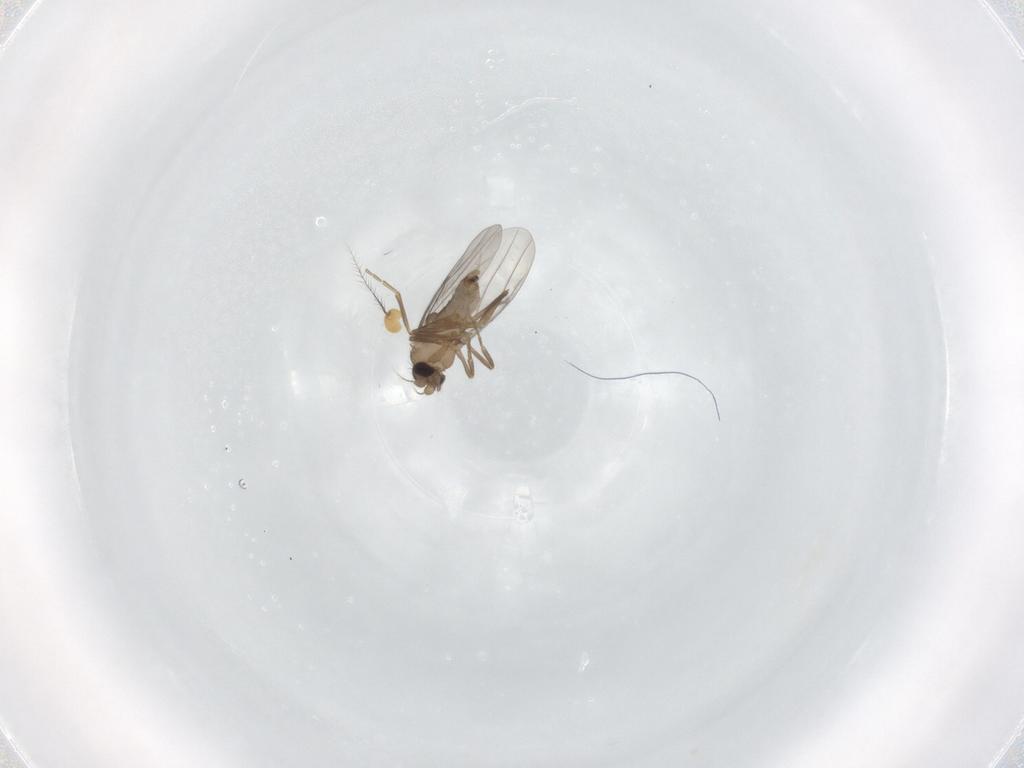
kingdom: Animalia
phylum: Arthropoda
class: Insecta
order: Diptera
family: Clusiidae
